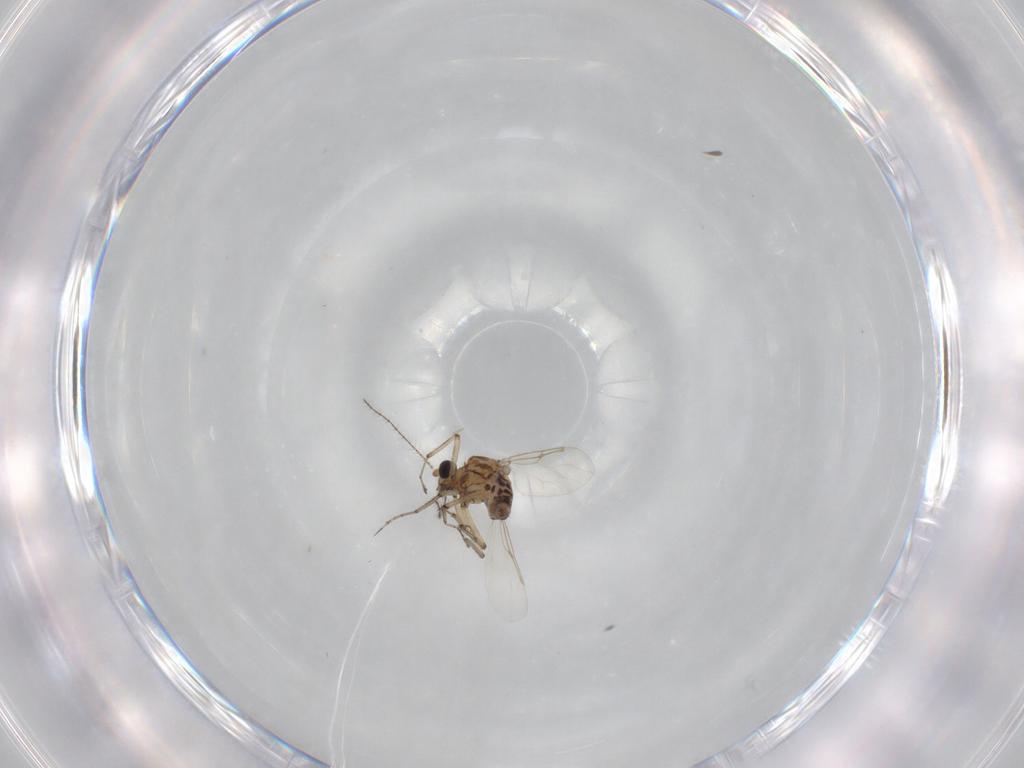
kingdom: Animalia
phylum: Arthropoda
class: Insecta
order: Diptera
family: Ceratopogonidae
